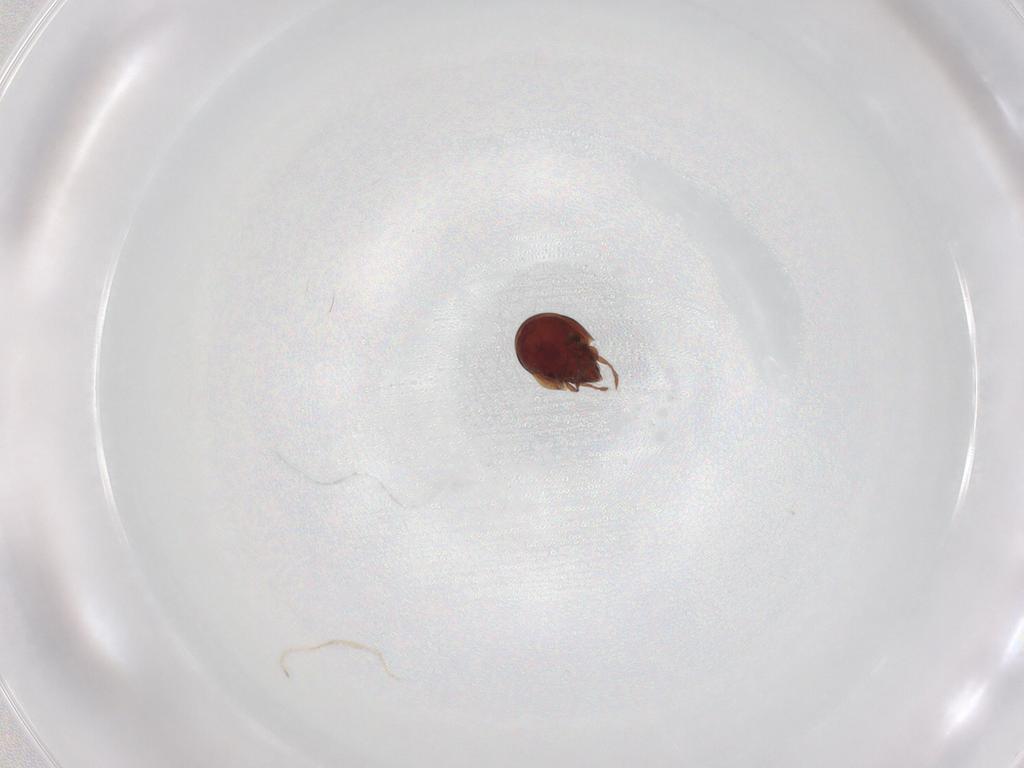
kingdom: Animalia
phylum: Arthropoda
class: Arachnida
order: Sarcoptiformes
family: Ceratozetidae
